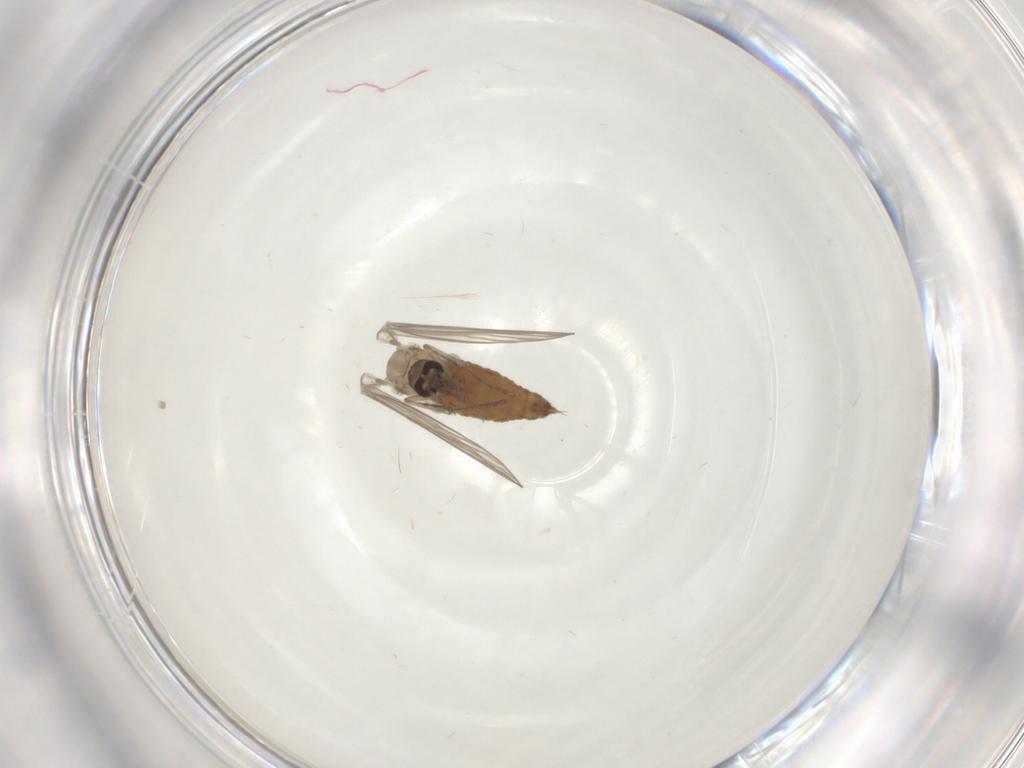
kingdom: Animalia
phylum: Arthropoda
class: Insecta
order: Diptera
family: Psychodidae
